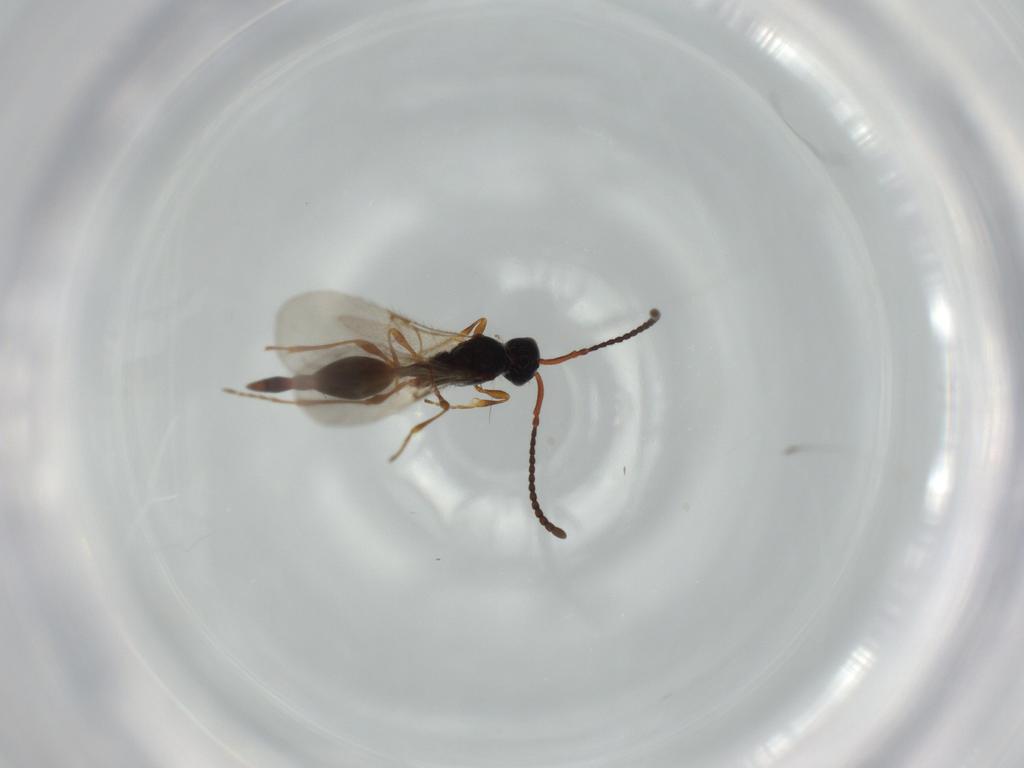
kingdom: Animalia
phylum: Arthropoda
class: Insecta
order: Hymenoptera
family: Diapriidae
